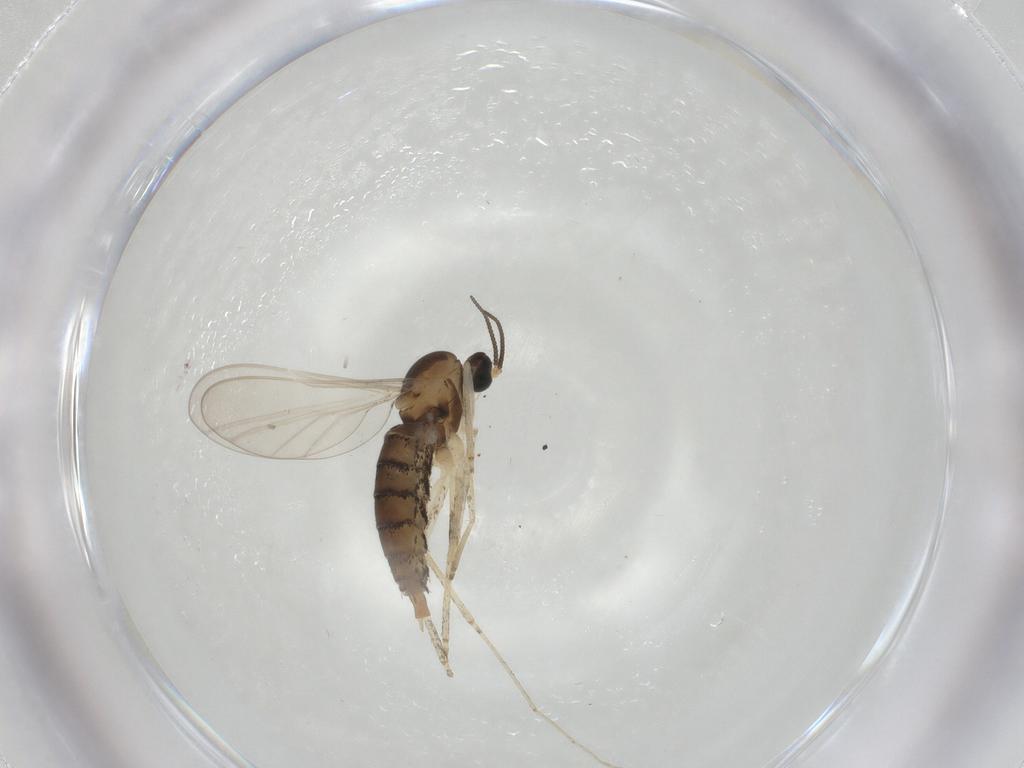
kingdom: Animalia
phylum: Arthropoda
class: Insecta
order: Diptera
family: Cecidomyiidae
